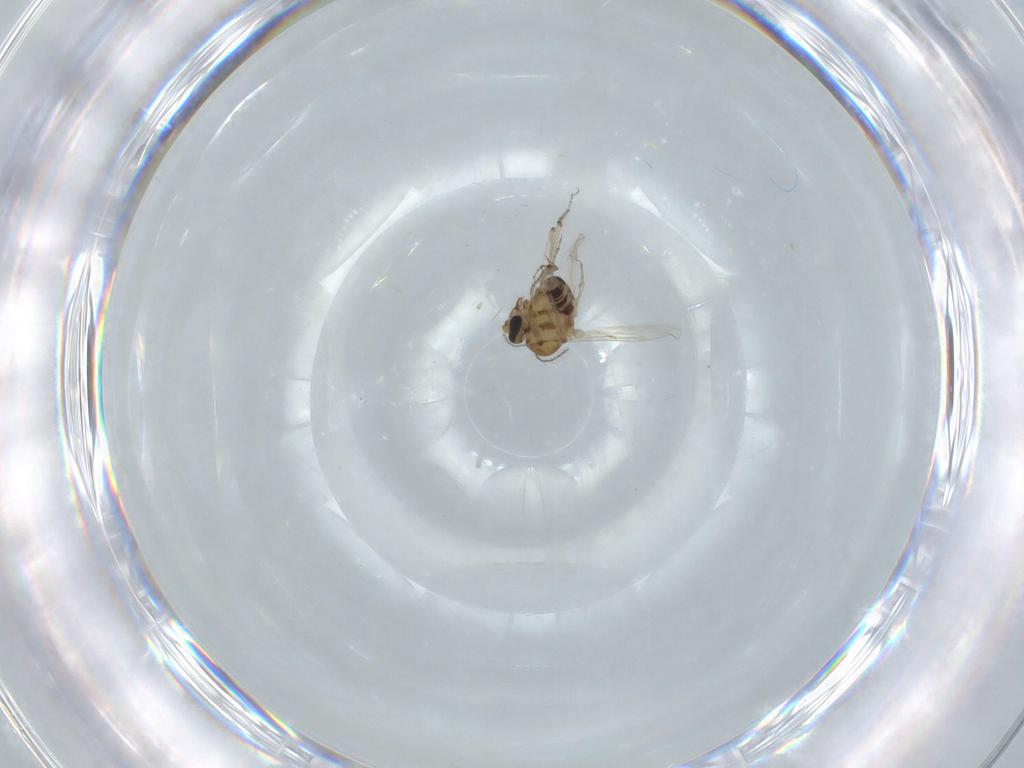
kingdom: Animalia
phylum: Arthropoda
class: Insecta
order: Diptera
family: Ceratopogonidae
